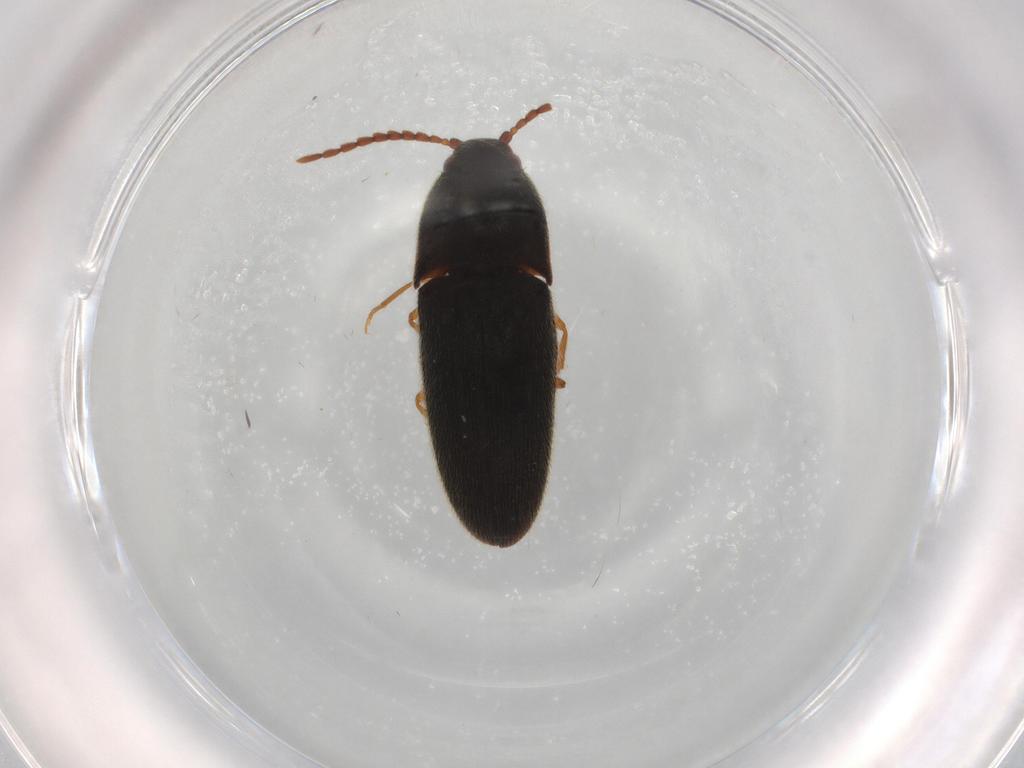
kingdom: Animalia
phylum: Arthropoda
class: Insecta
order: Coleoptera
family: Elateridae
